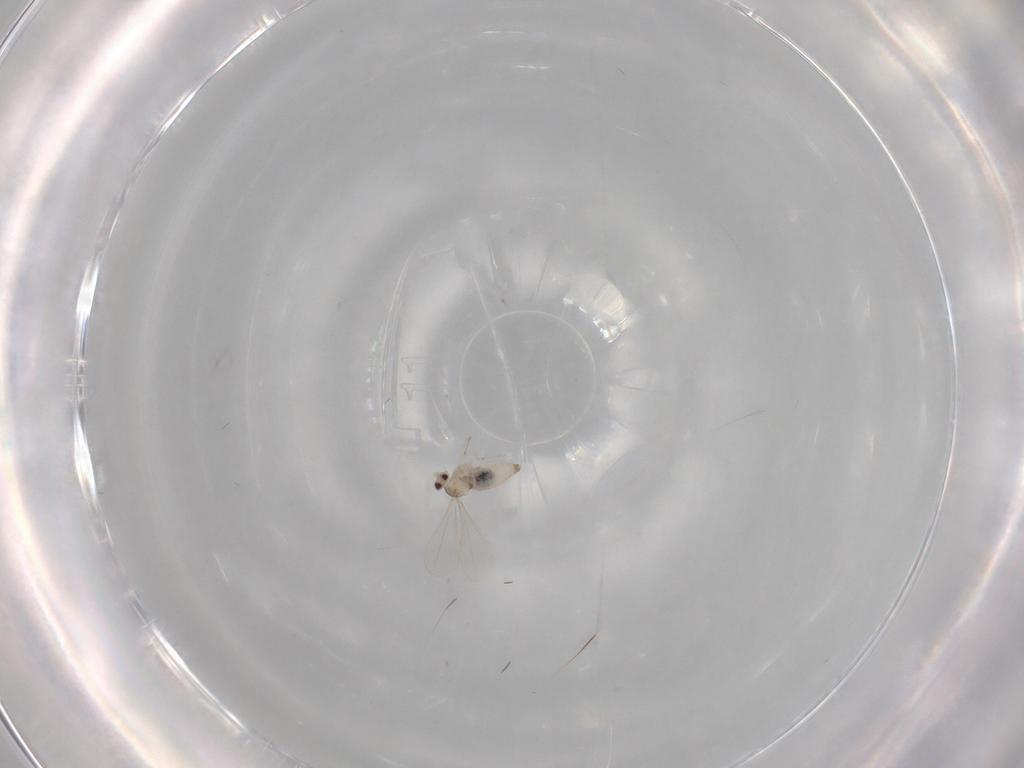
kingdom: Animalia
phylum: Arthropoda
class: Insecta
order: Diptera
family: Cecidomyiidae
